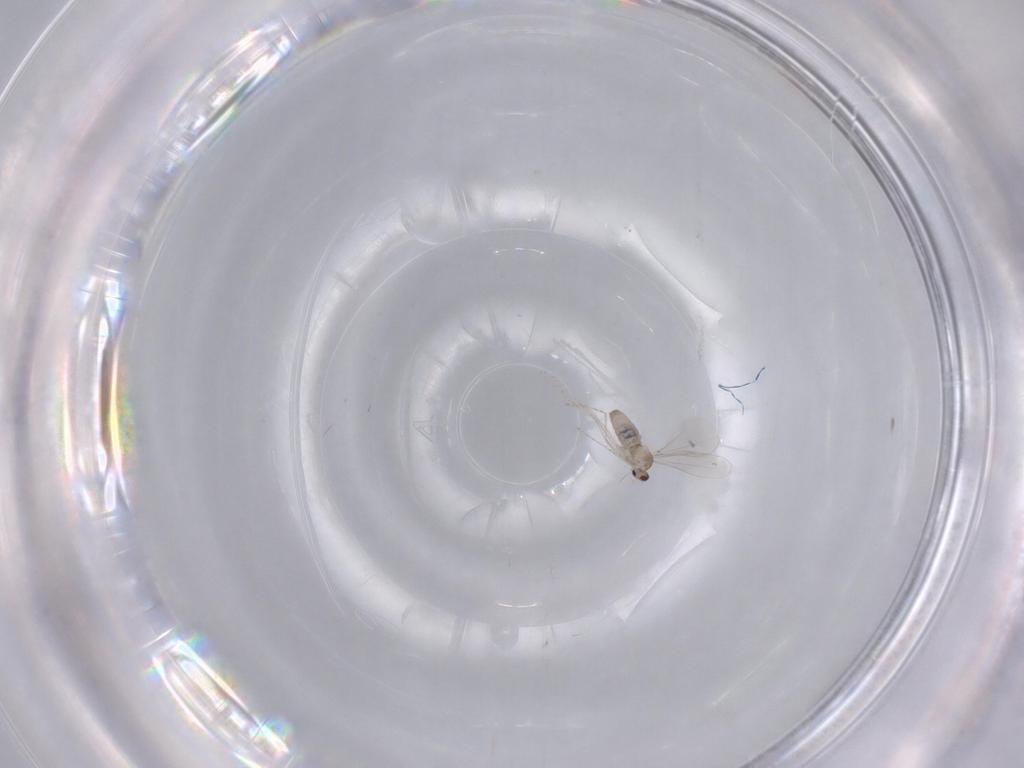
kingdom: Animalia
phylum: Arthropoda
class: Insecta
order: Diptera
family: Cecidomyiidae
